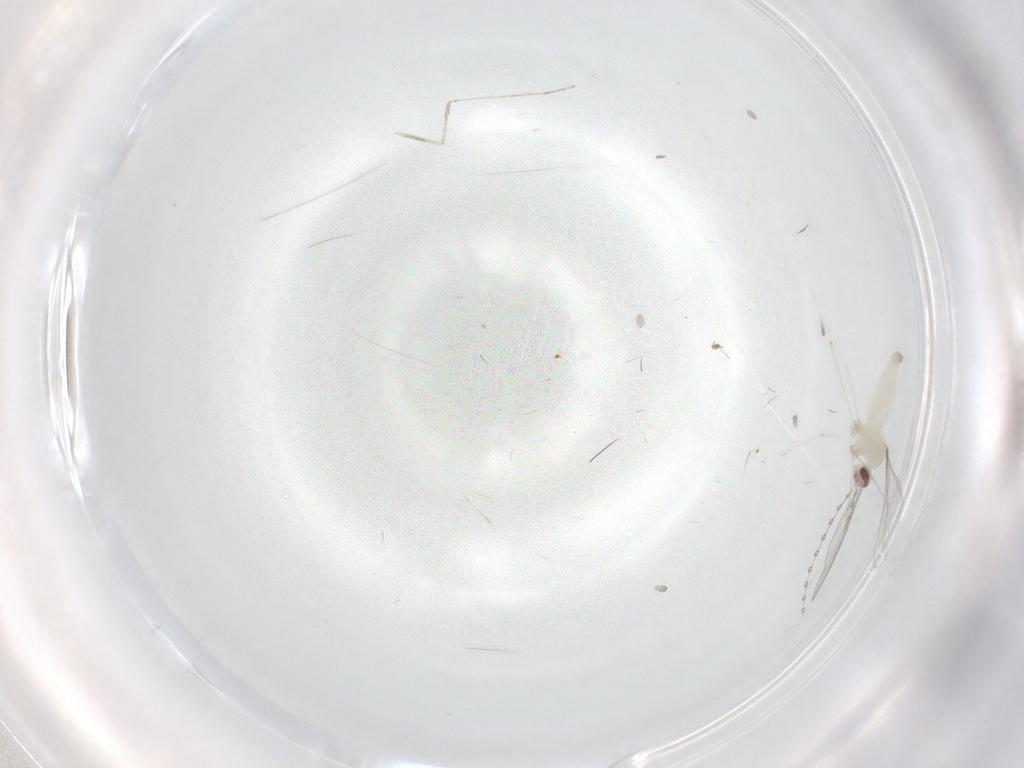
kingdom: Animalia
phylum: Arthropoda
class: Insecta
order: Diptera
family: Cecidomyiidae
